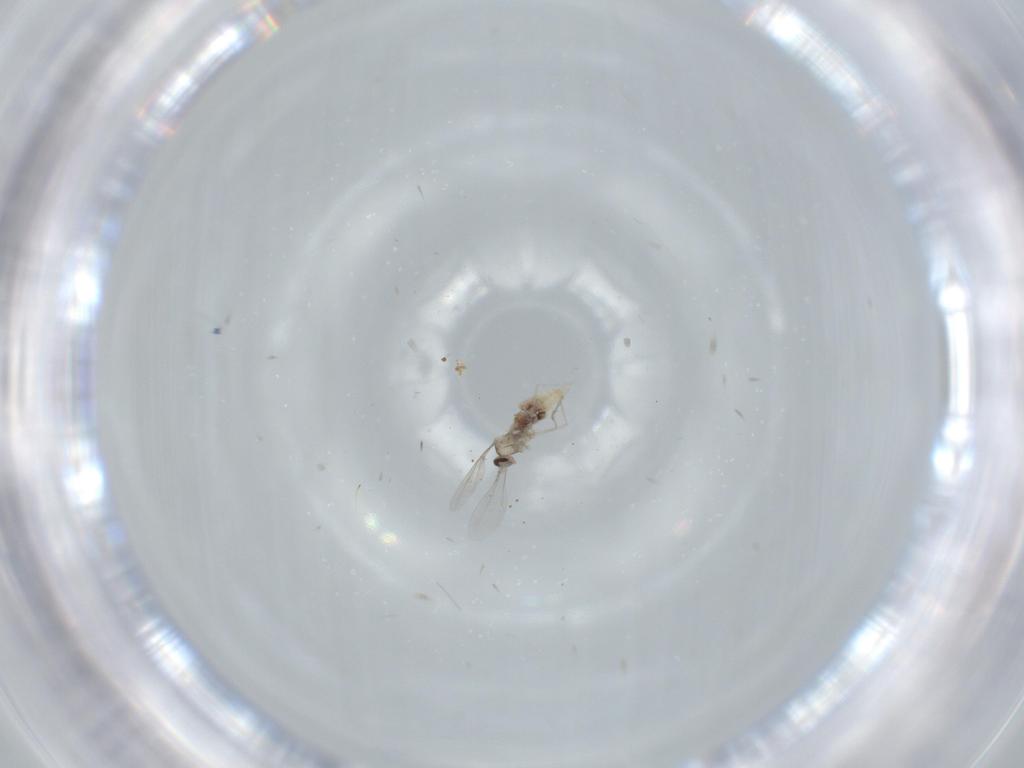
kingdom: Animalia
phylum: Arthropoda
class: Insecta
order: Diptera
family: Cecidomyiidae
